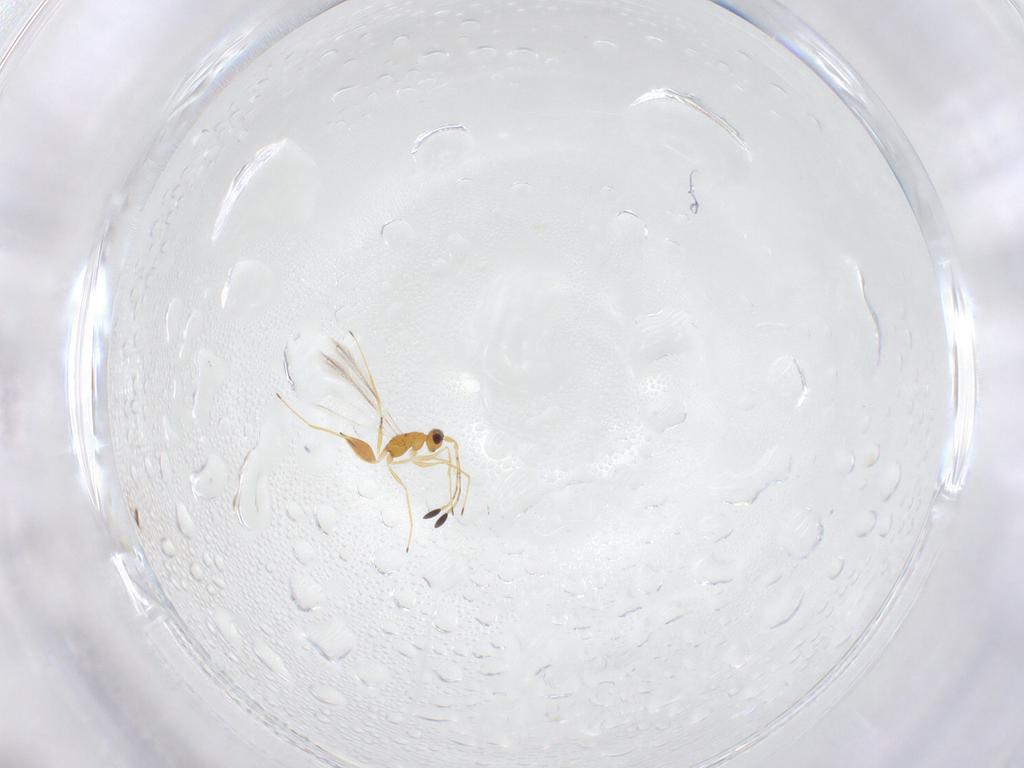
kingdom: Animalia
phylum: Arthropoda
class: Insecta
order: Hymenoptera
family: Mymaridae
